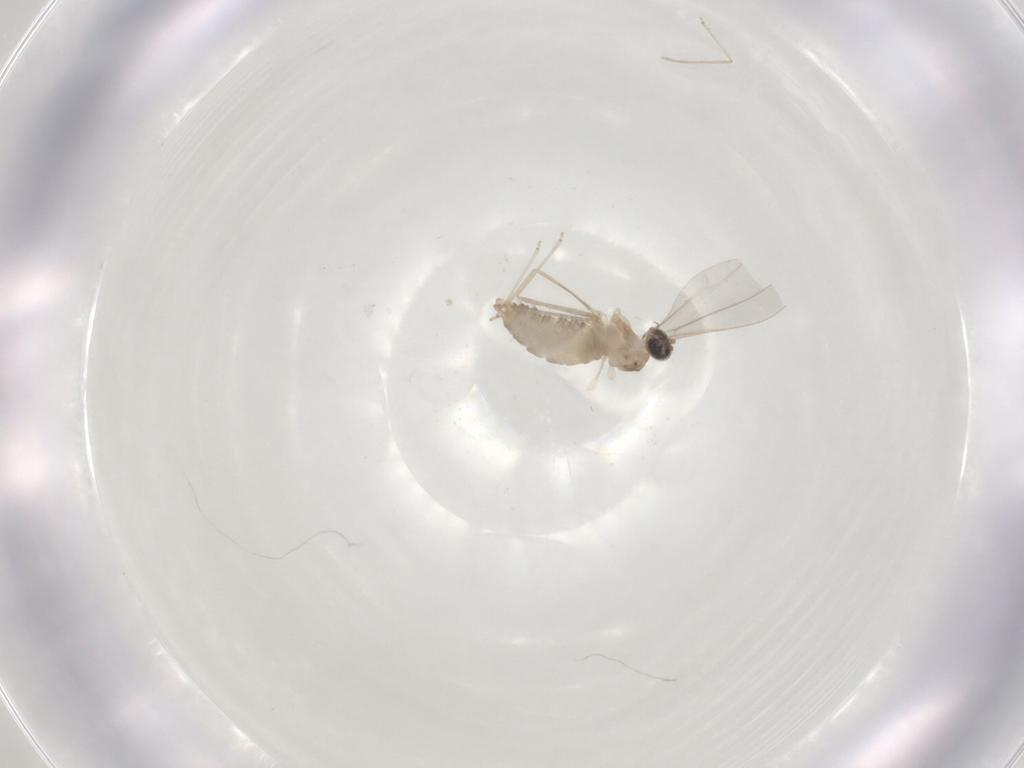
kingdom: Animalia
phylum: Arthropoda
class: Insecta
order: Diptera
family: Cecidomyiidae
